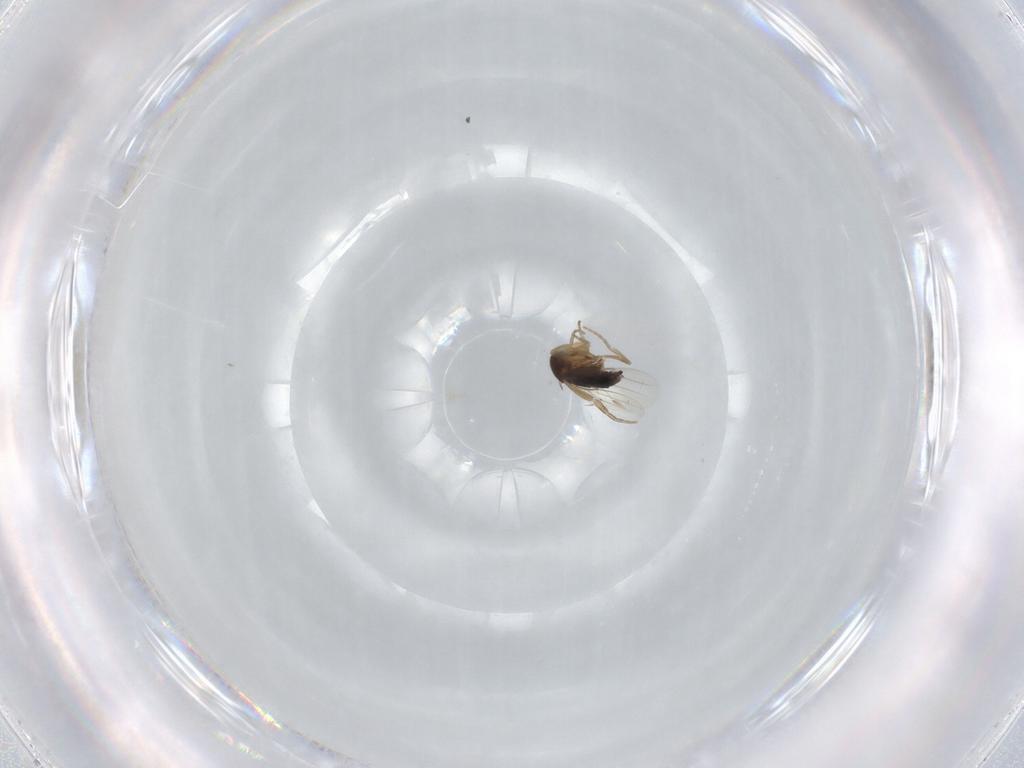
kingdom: Animalia
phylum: Arthropoda
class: Insecta
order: Diptera
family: Phoridae
